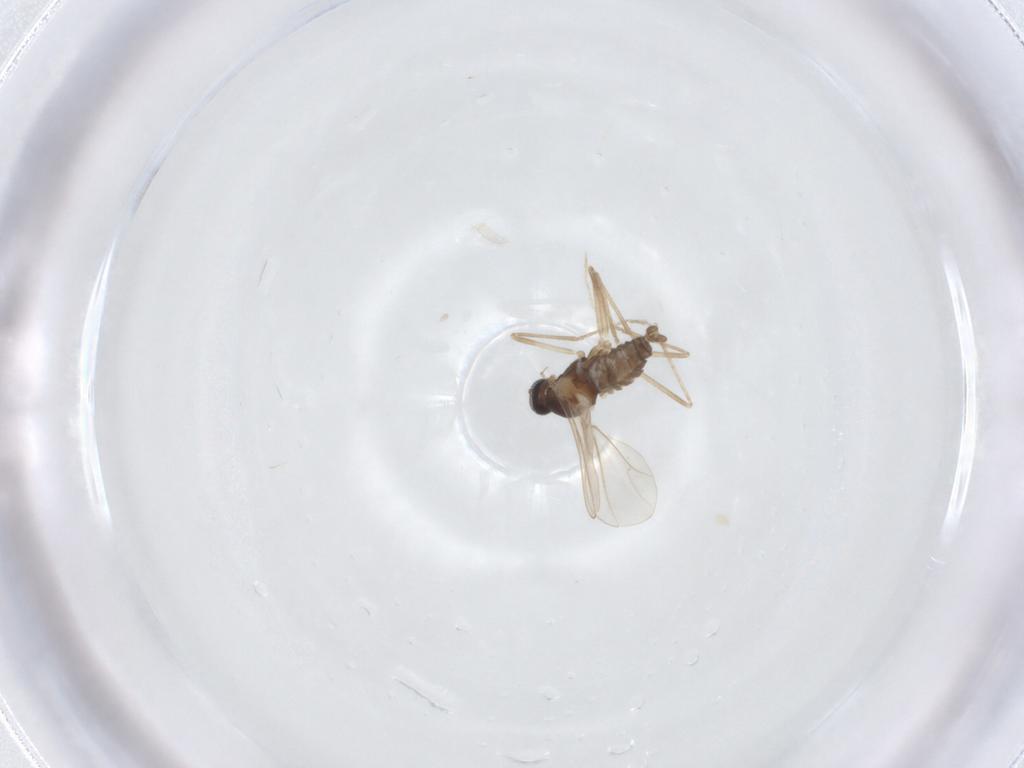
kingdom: Animalia
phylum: Arthropoda
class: Insecta
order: Diptera
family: Cecidomyiidae
